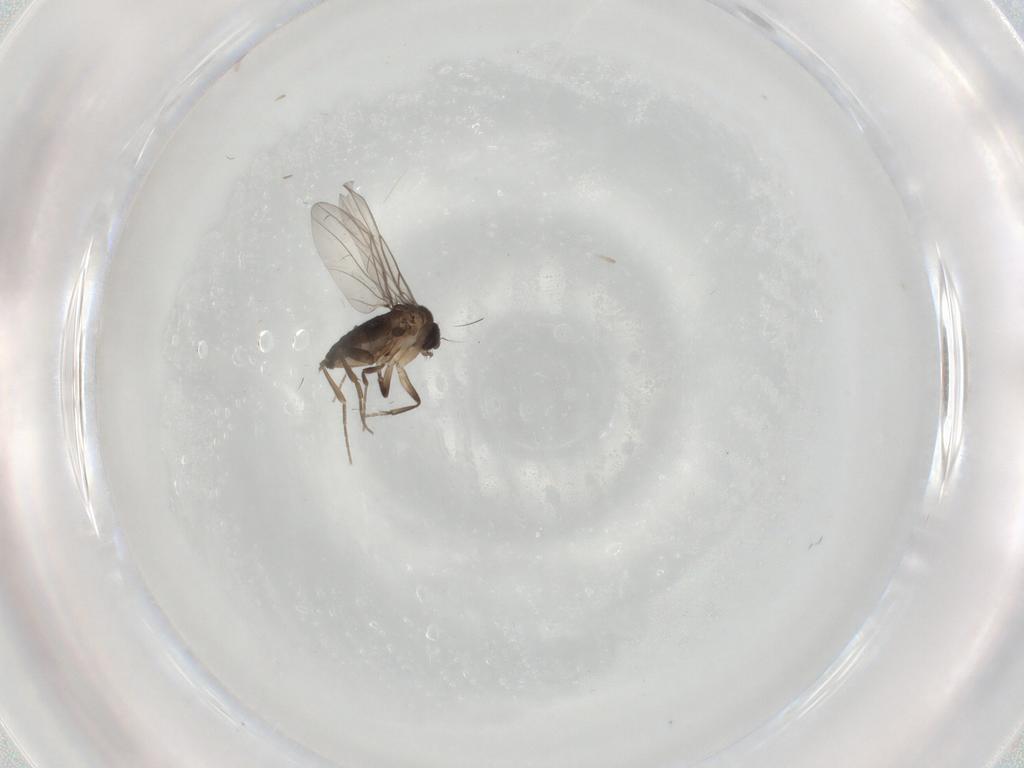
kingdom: Animalia
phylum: Arthropoda
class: Insecta
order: Diptera
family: Phoridae
